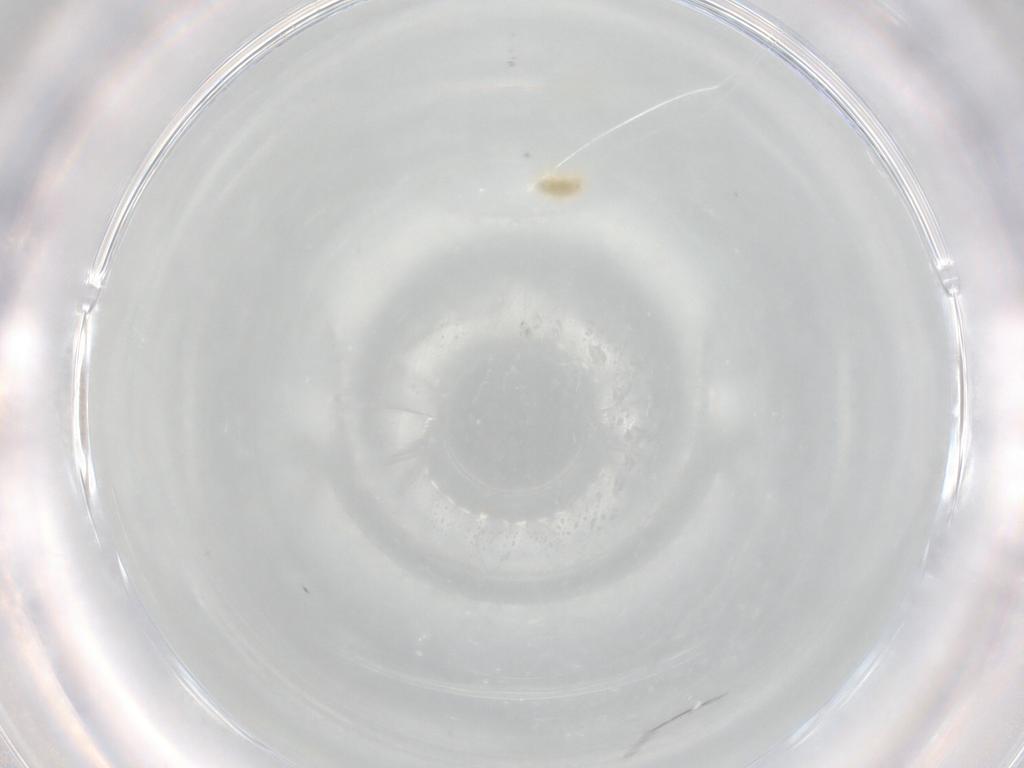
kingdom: Animalia
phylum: Arthropoda
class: Arachnida
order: Trombidiformes
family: Tetranychidae
